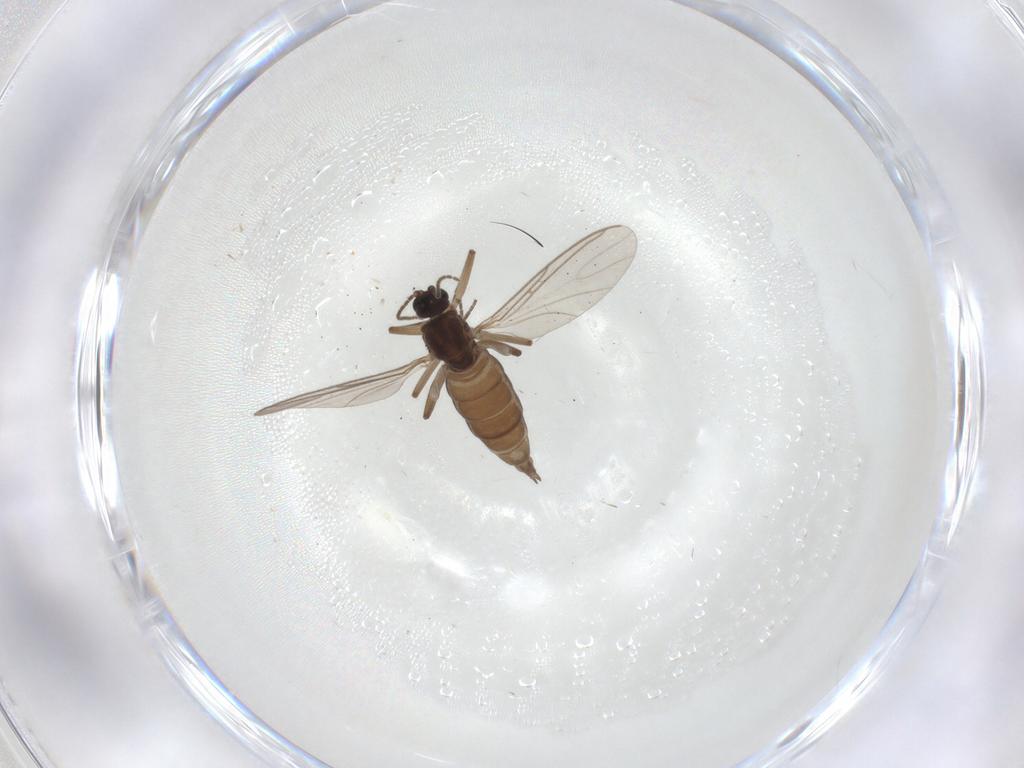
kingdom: Animalia
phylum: Arthropoda
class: Insecta
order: Diptera
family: Sciaridae
